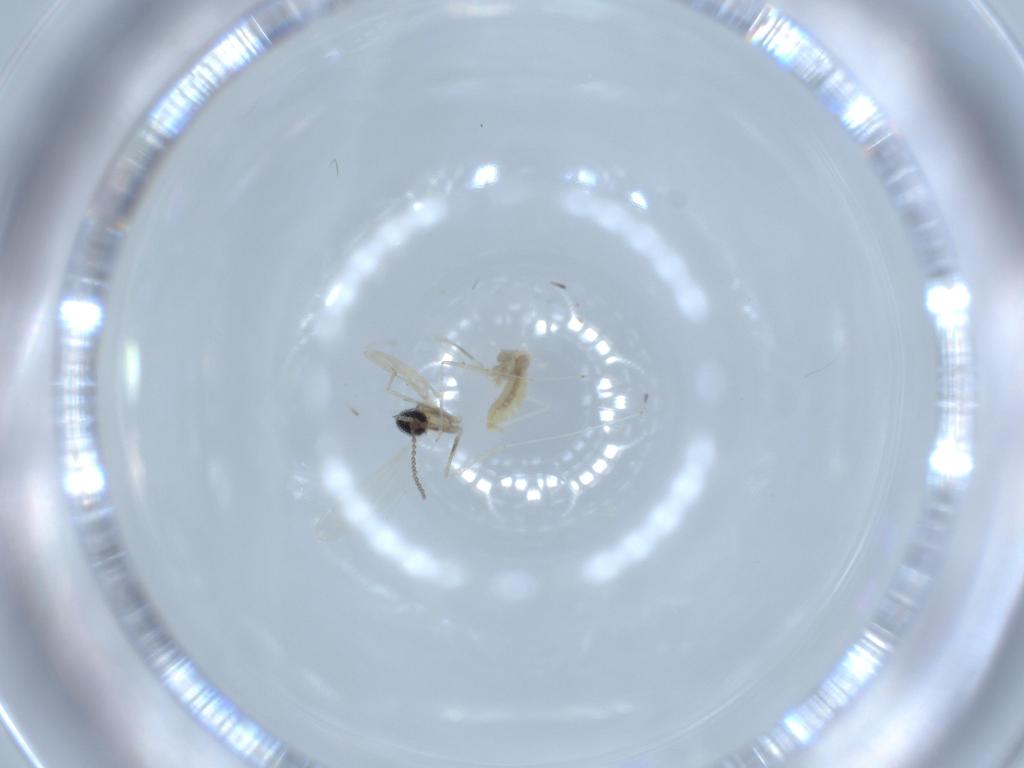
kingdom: Animalia
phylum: Arthropoda
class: Insecta
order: Diptera
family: Cecidomyiidae
